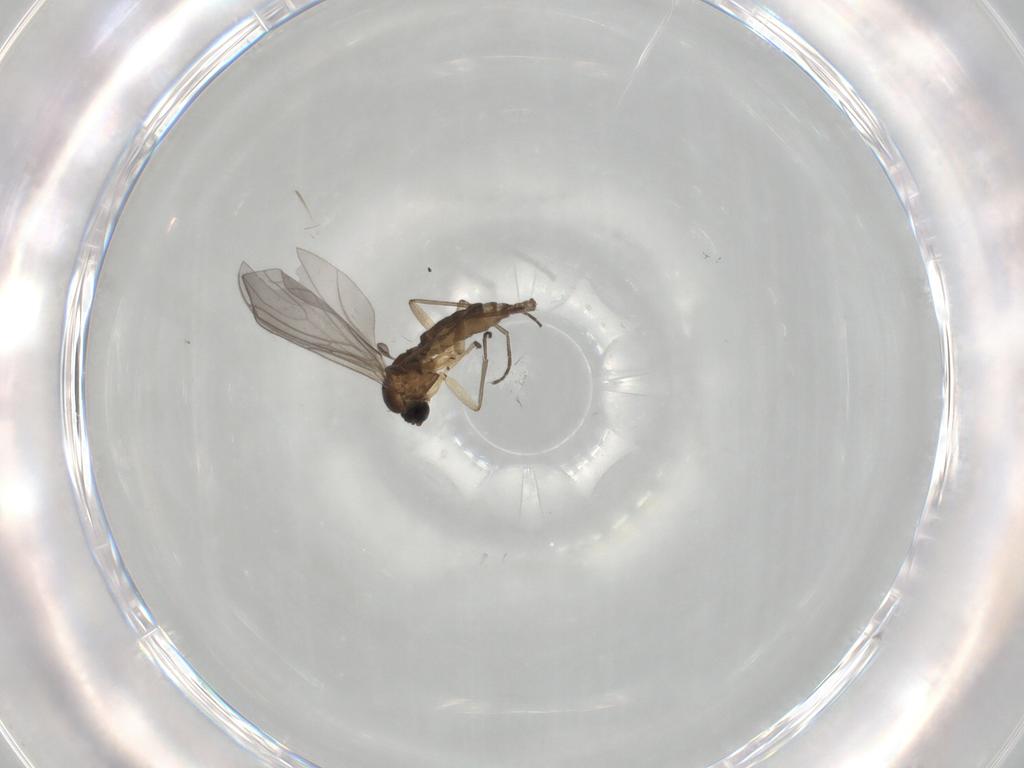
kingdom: Animalia
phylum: Arthropoda
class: Insecta
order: Diptera
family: Sciaridae
